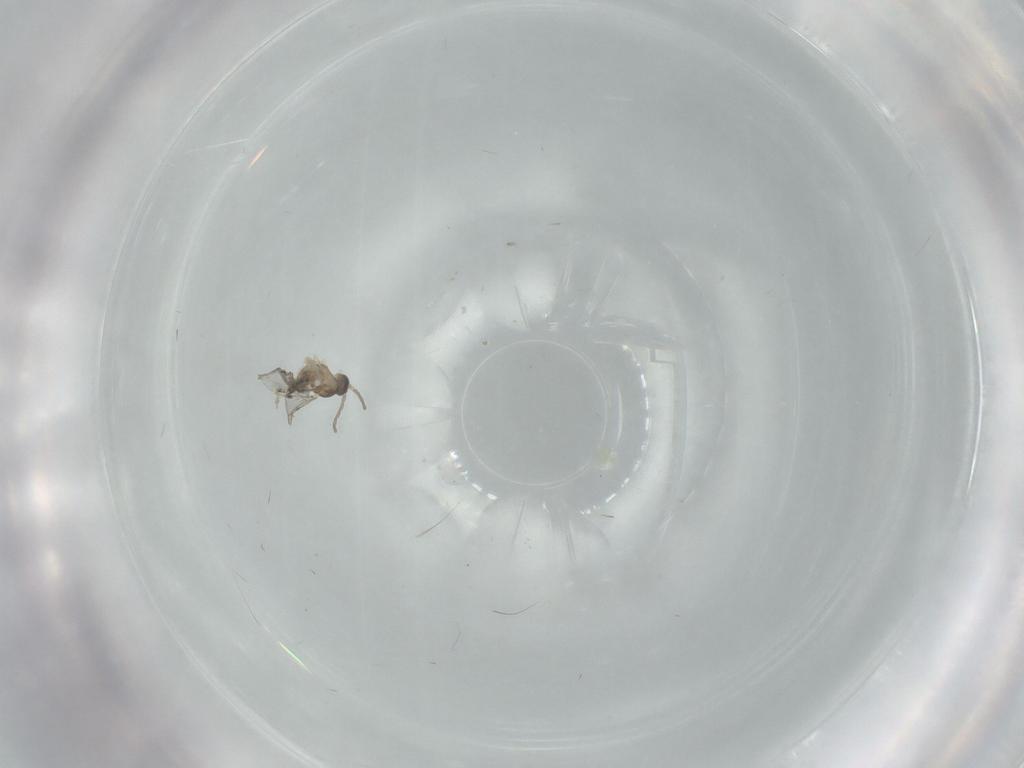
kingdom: Animalia
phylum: Arthropoda
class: Insecta
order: Diptera
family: Cecidomyiidae
